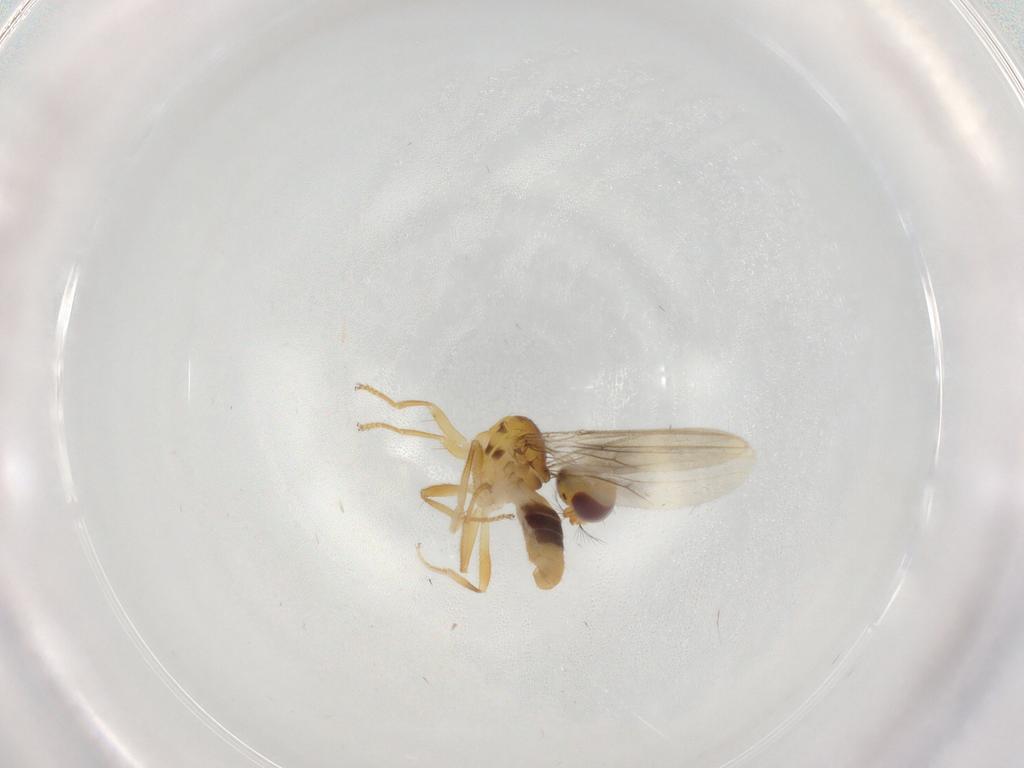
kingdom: Animalia
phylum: Arthropoda
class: Insecta
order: Diptera
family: Periscelididae
